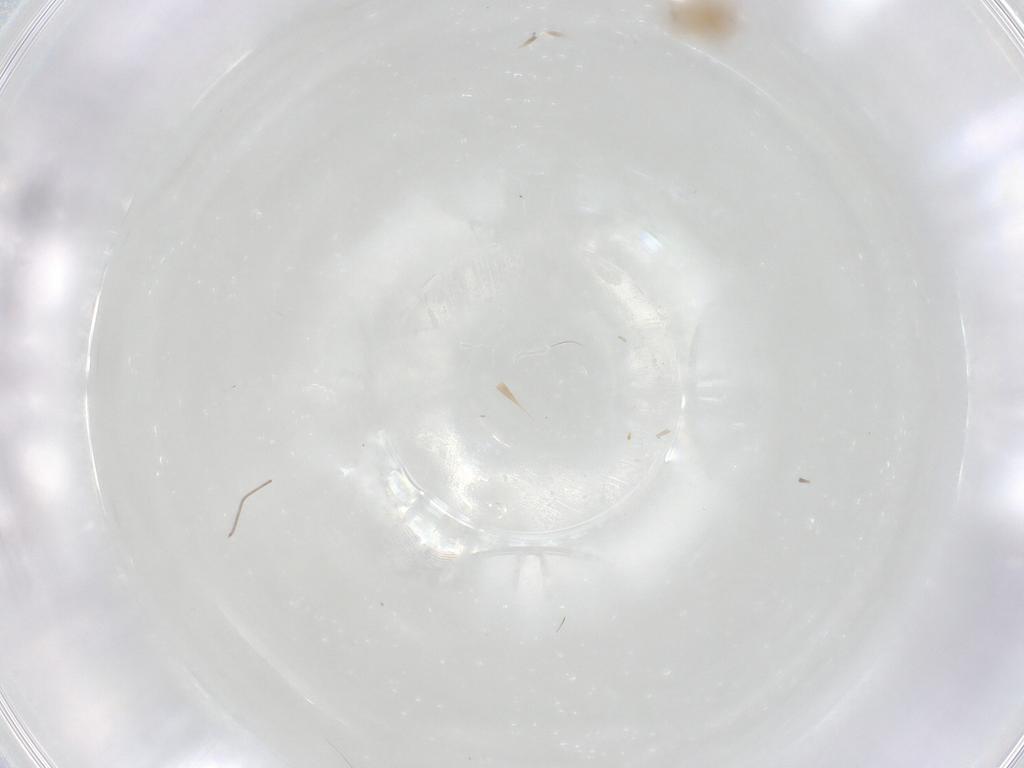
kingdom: Animalia
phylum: Arthropoda
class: Insecta
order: Diptera
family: Cecidomyiidae
